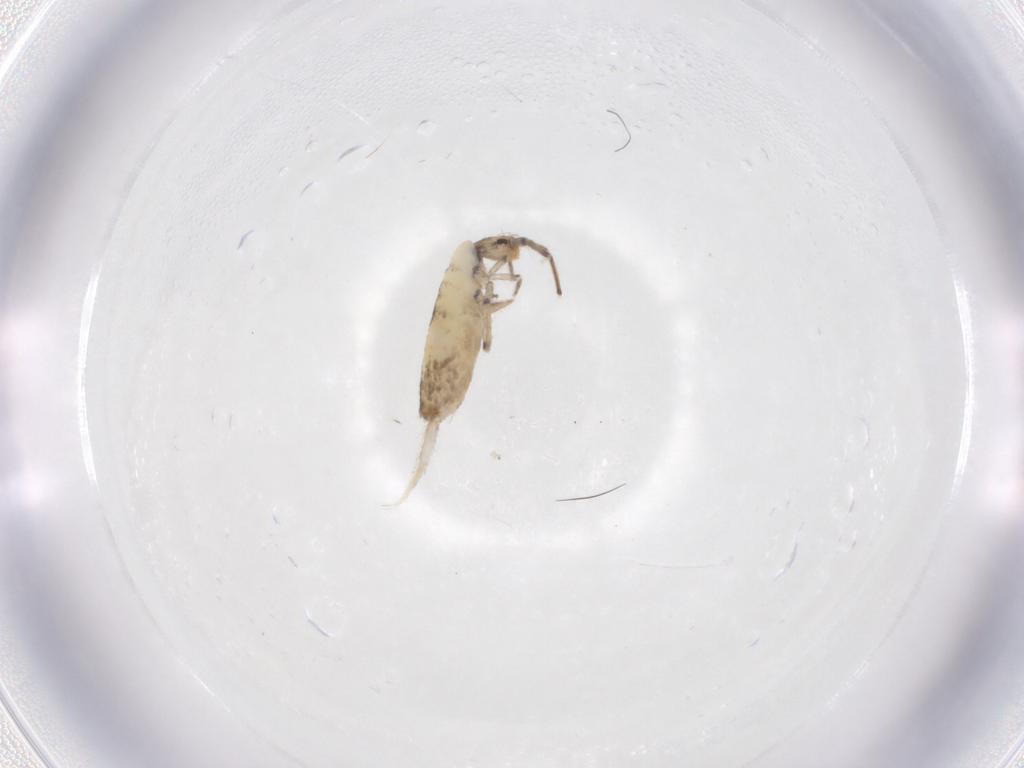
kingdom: Animalia
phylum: Arthropoda
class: Collembola
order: Entomobryomorpha
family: Entomobryidae
